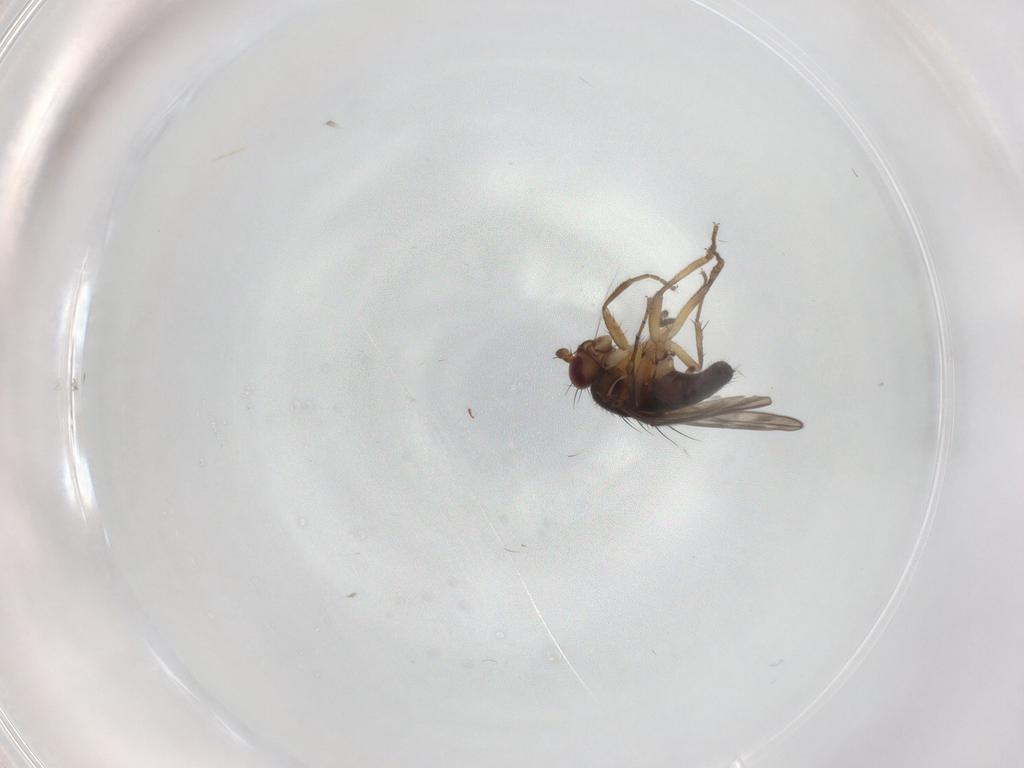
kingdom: Animalia
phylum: Arthropoda
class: Insecta
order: Diptera
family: Sphaeroceridae
